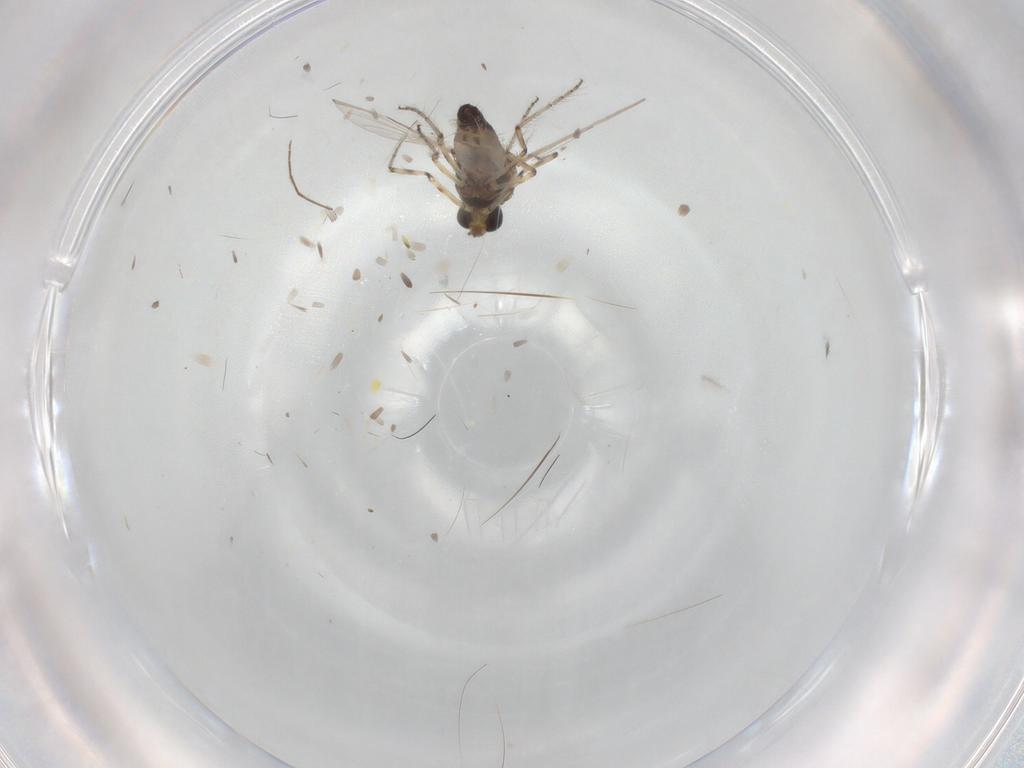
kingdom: Animalia
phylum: Arthropoda
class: Insecta
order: Diptera
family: Ceratopogonidae
